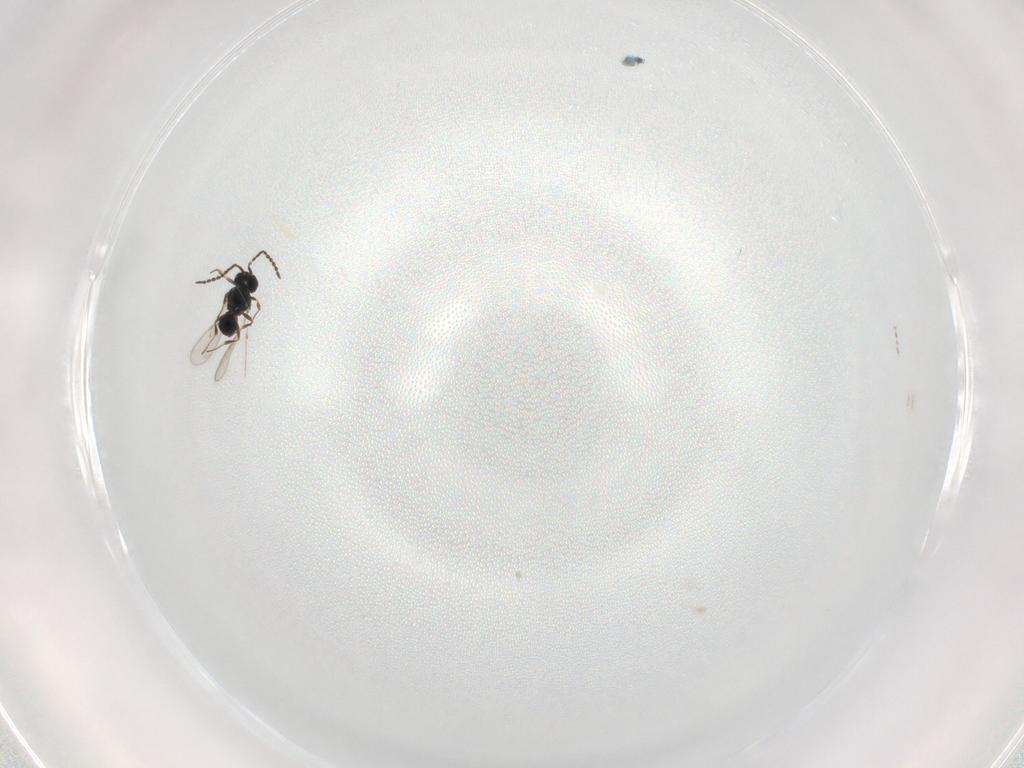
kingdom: Animalia
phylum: Arthropoda
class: Insecta
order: Hymenoptera
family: Scelionidae
